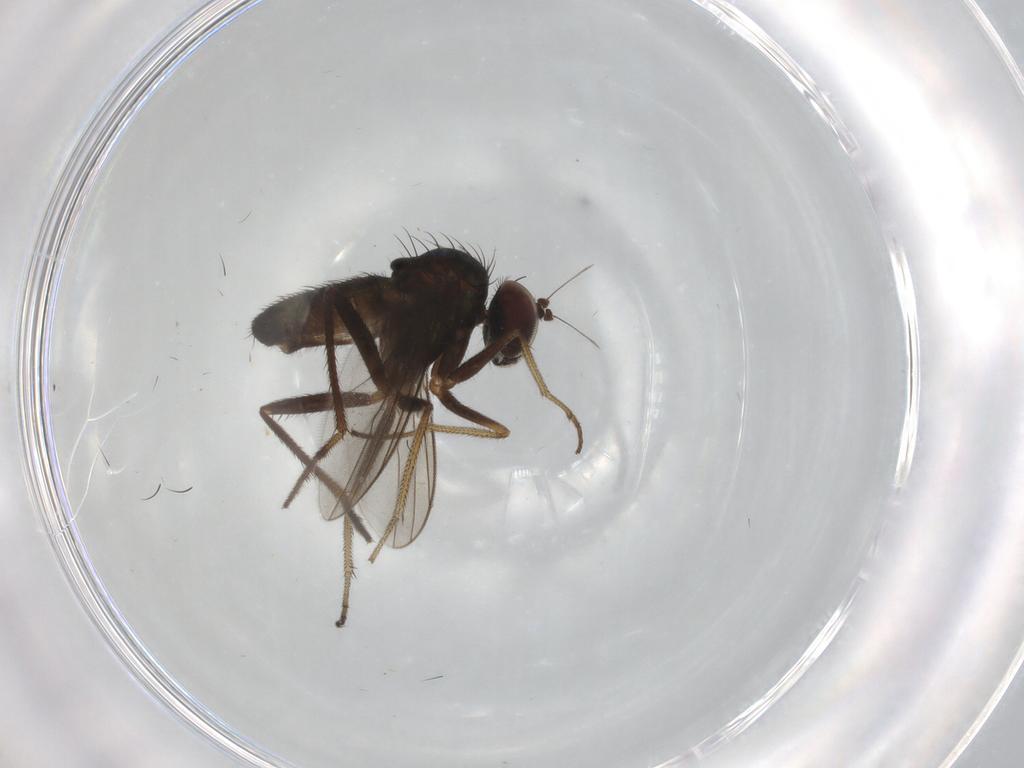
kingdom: Animalia
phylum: Arthropoda
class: Insecta
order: Diptera
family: Dolichopodidae
